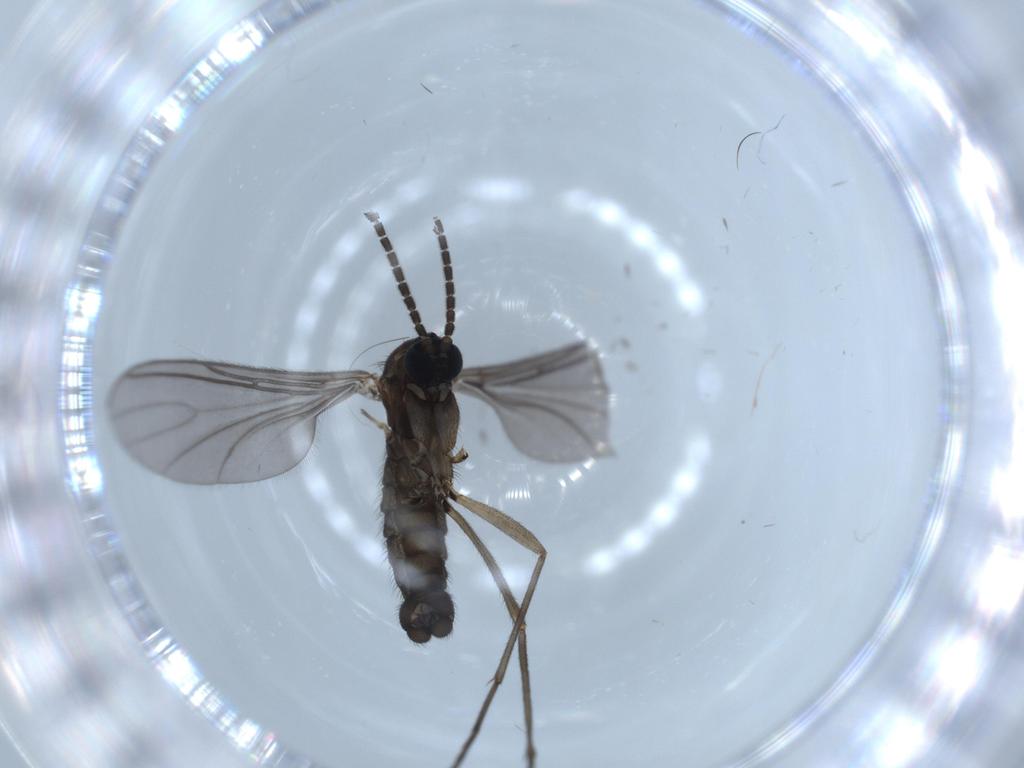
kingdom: Animalia
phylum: Arthropoda
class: Insecta
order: Diptera
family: Sciaridae
